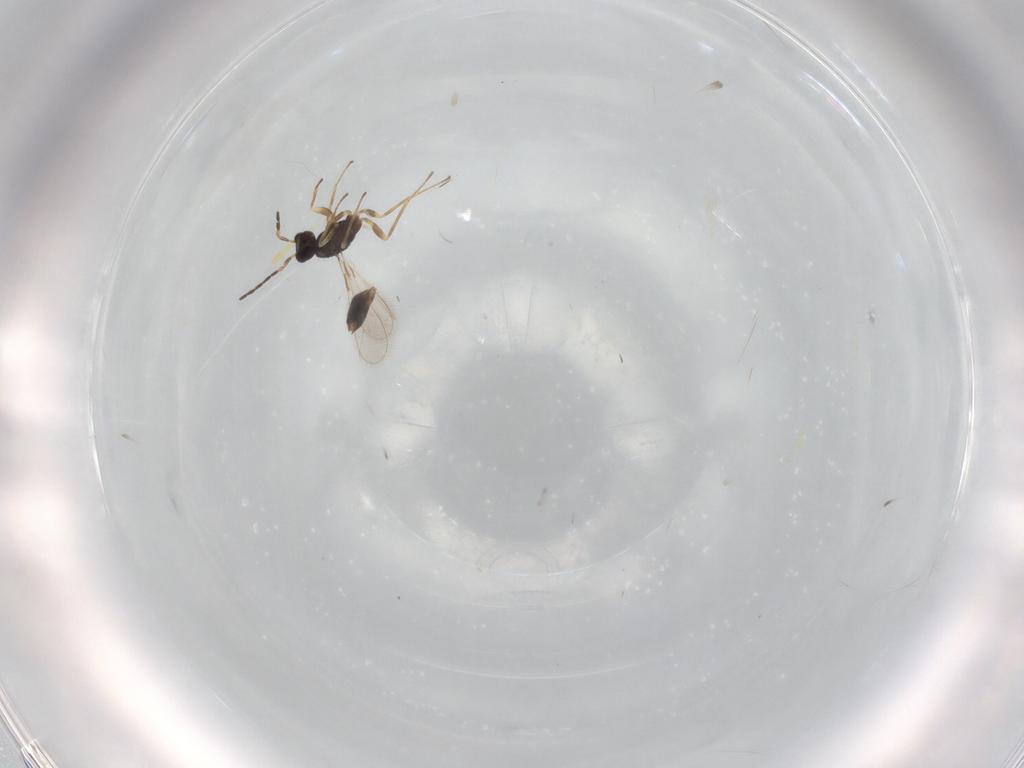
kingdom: Animalia
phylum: Arthropoda
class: Insecta
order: Hymenoptera
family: Mymaridae
